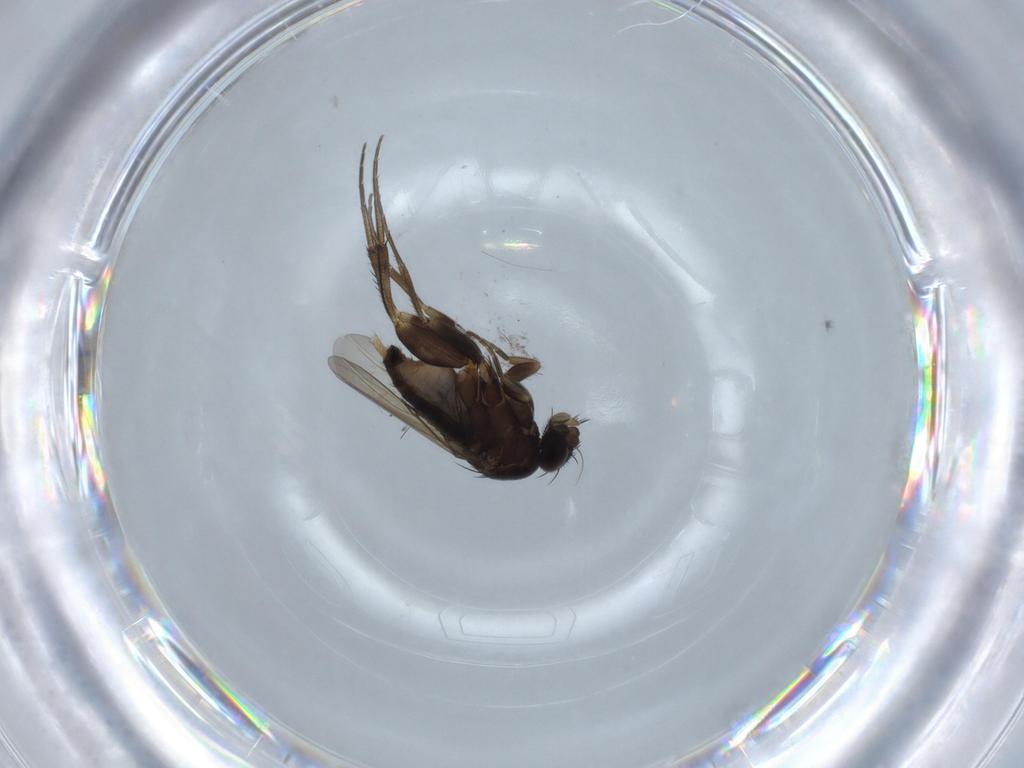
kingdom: Animalia
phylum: Arthropoda
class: Insecta
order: Diptera
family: Phoridae
